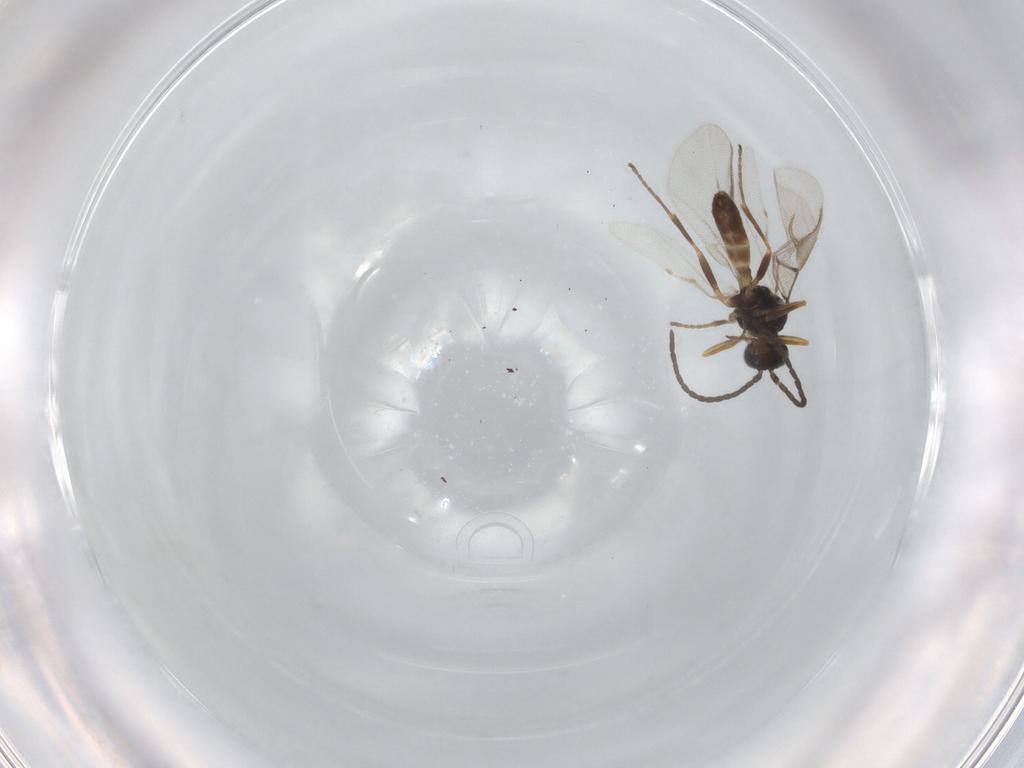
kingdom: Animalia
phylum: Arthropoda
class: Insecta
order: Hymenoptera
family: Braconidae
